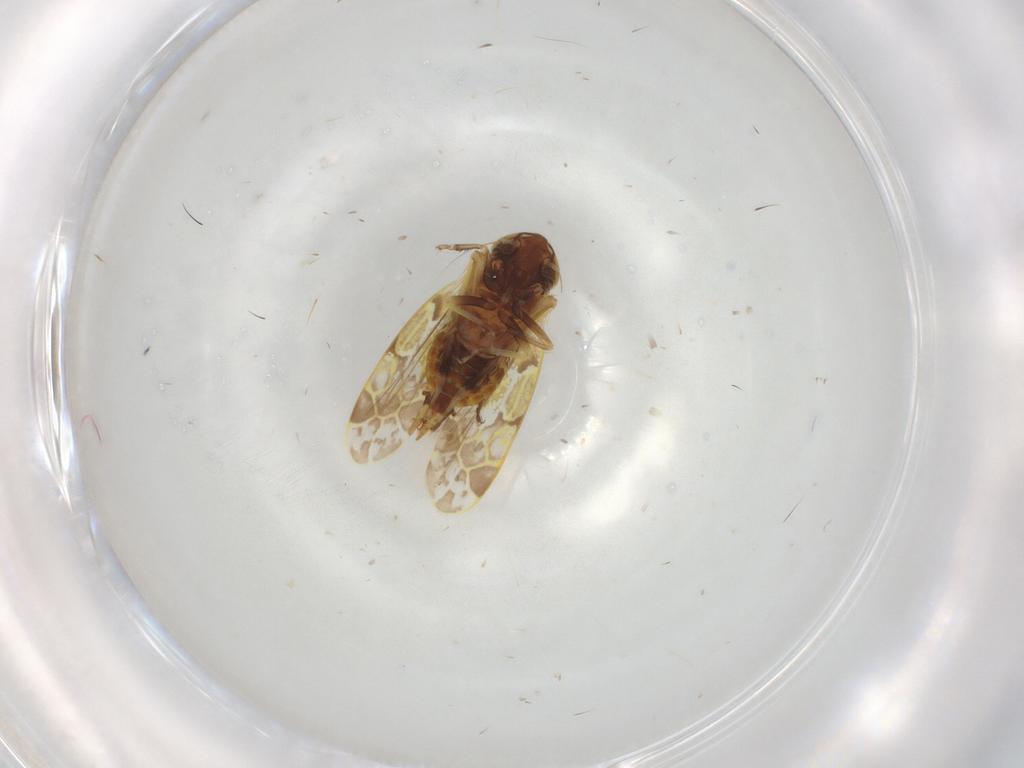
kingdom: Animalia
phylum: Arthropoda
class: Insecta
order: Hemiptera
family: Cicadellidae
